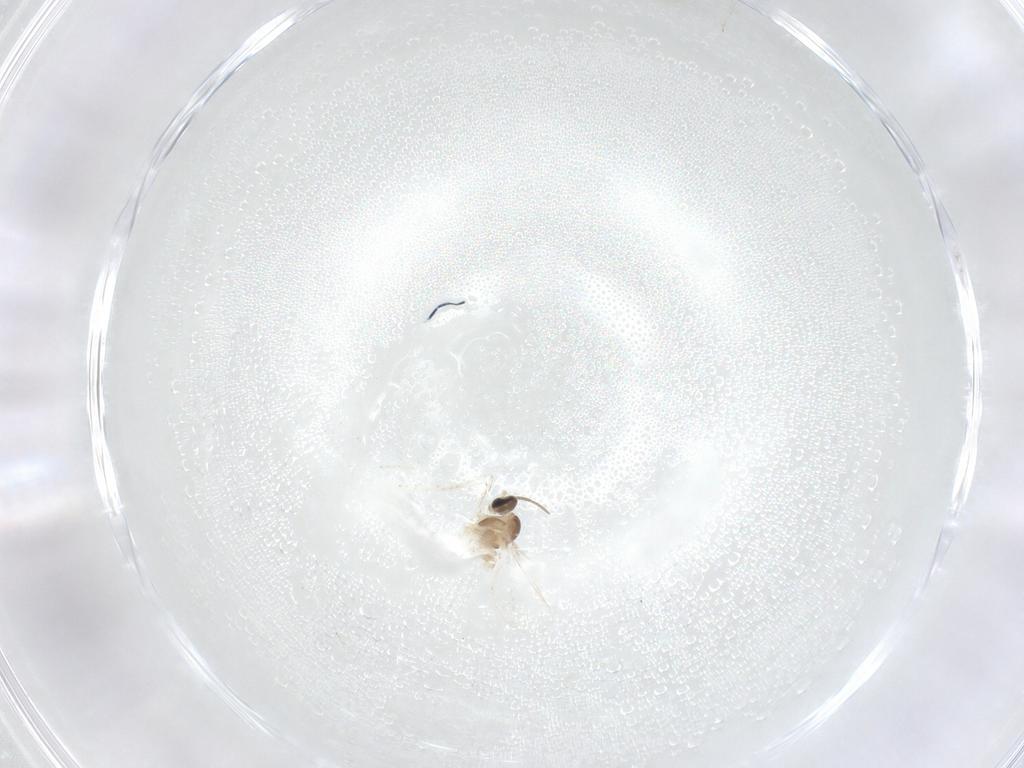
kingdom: Animalia
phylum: Arthropoda
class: Insecta
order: Diptera
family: Cecidomyiidae
